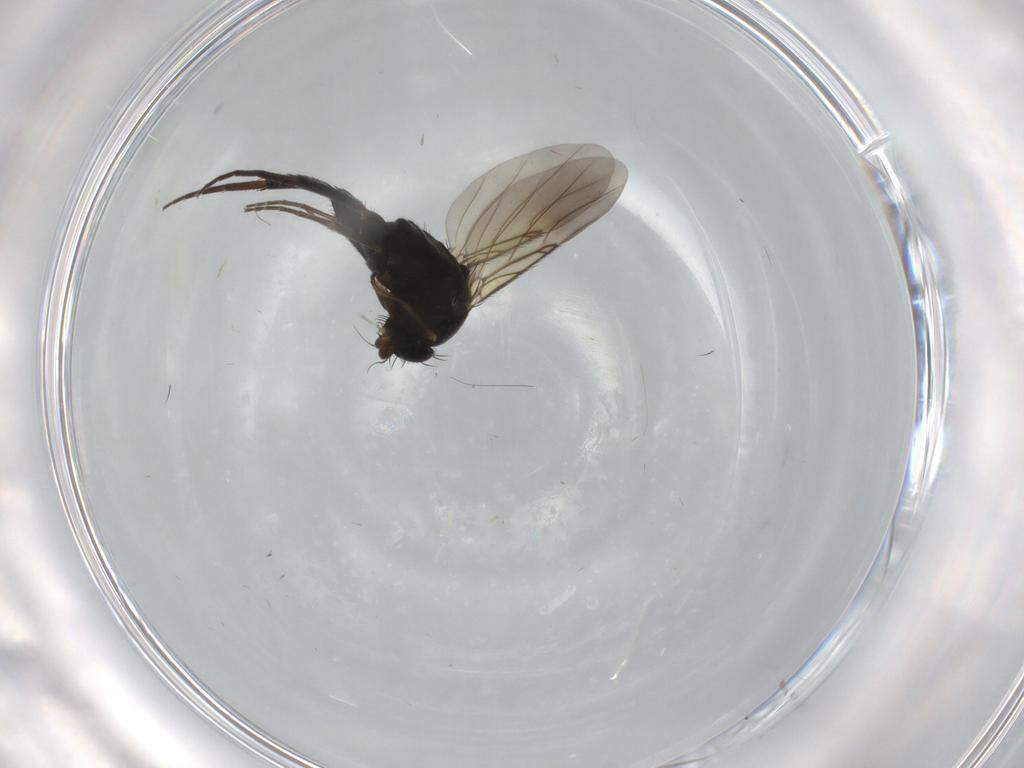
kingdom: Animalia
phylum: Arthropoda
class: Insecta
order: Diptera
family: Phoridae
